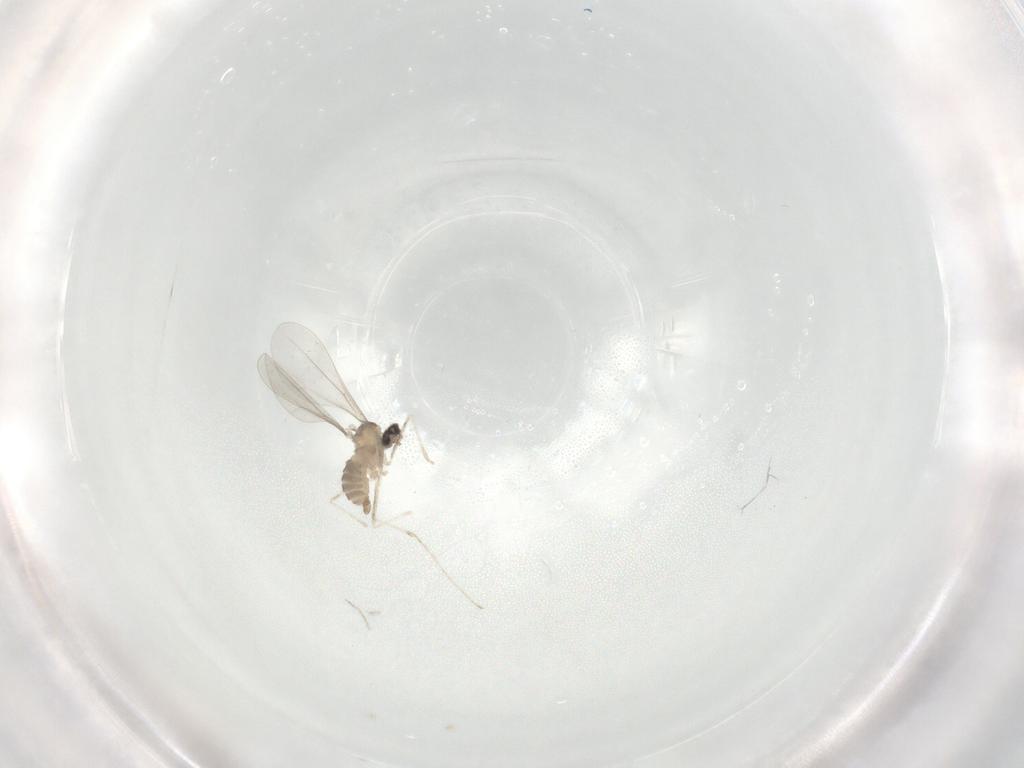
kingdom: Animalia
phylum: Arthropoda
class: Insecta
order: Diptera
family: Cecidomyiidae
